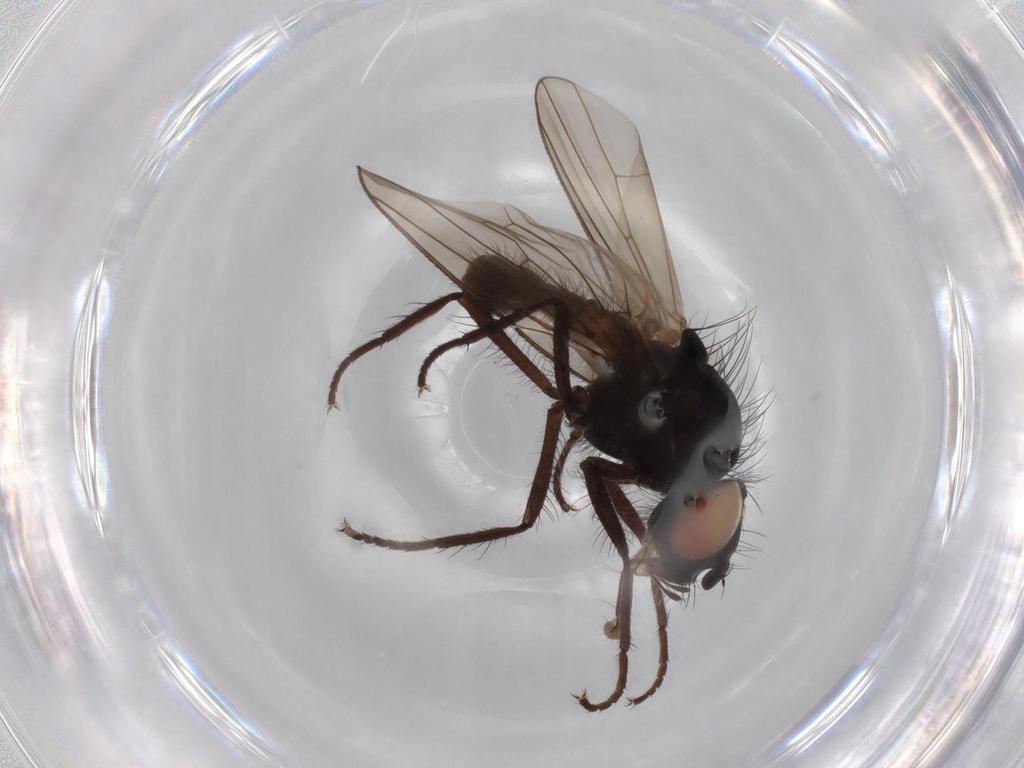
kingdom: Animalia
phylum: Arthropoda
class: Insecta
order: Diptera
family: Anthomyiidae
